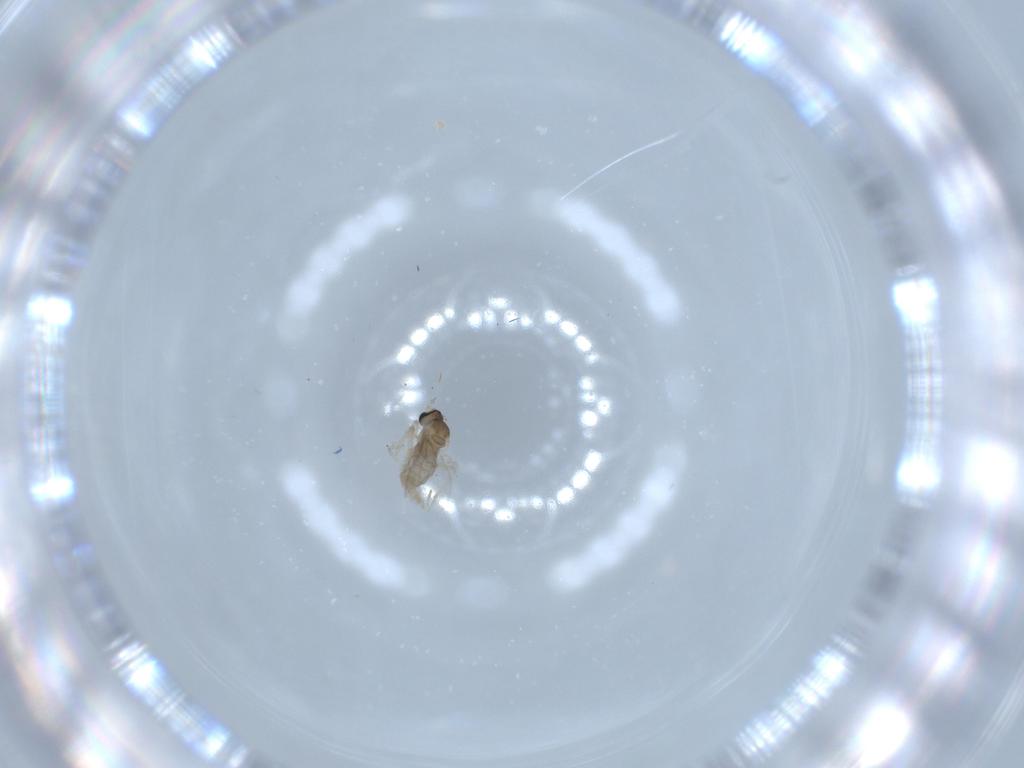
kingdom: Animalia
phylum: Arthropoda
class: Insecta
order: Diptera
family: Cecidomyiidae
